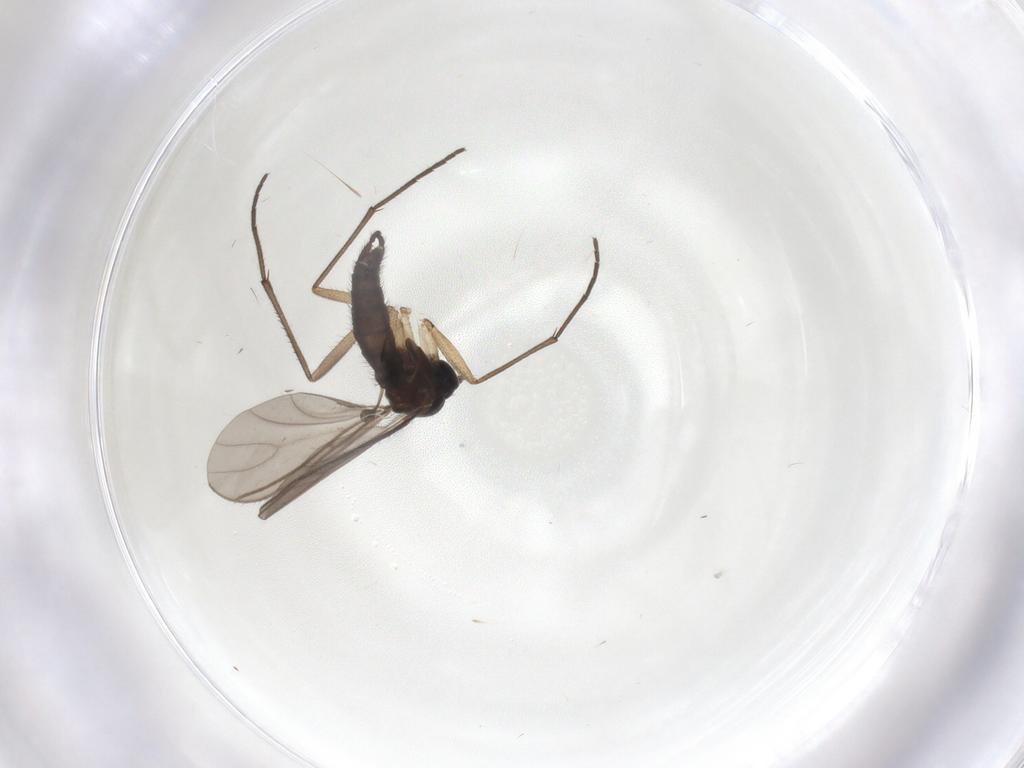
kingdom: Animalia
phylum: Arthropoda
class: Insecta
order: Diptera
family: Sciaridae
